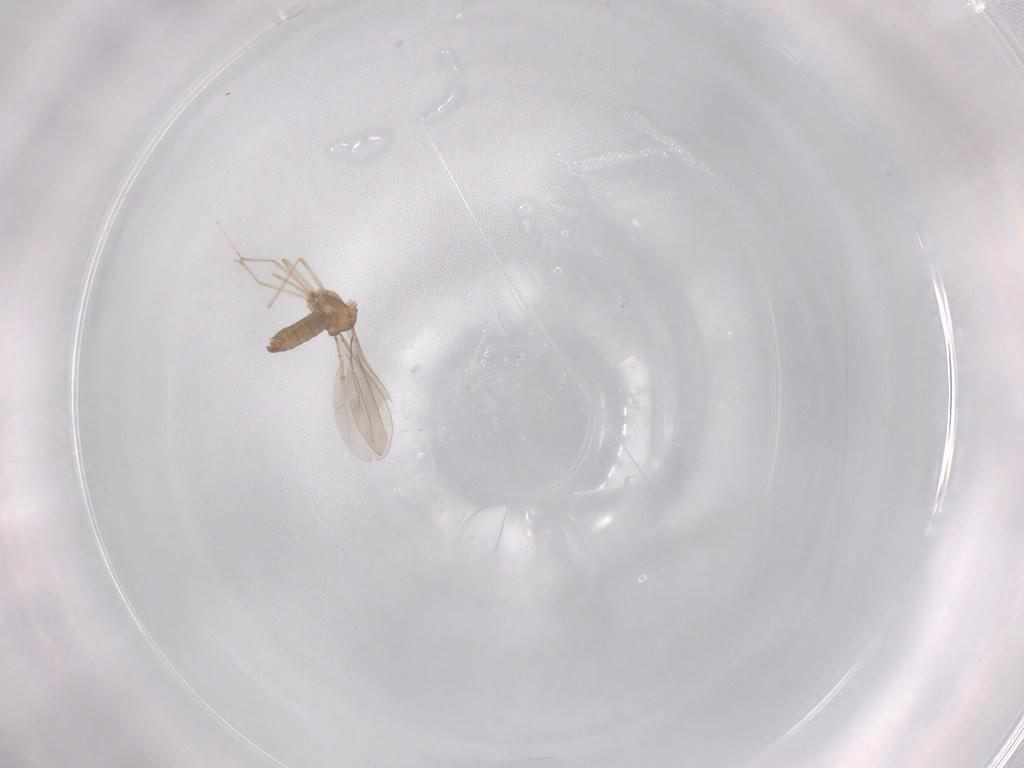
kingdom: Animalia
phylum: Arthropoda
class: Insecta
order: Diptera
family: Cecidomyiidae
